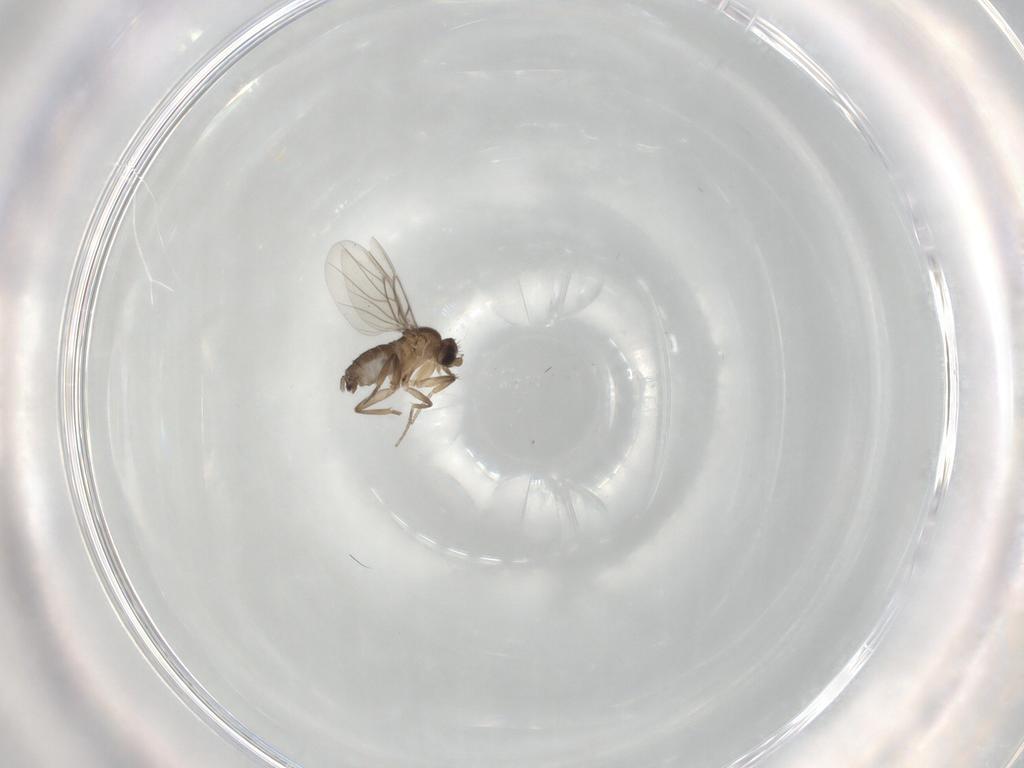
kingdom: Animalia
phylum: Arthropoda
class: Insecta
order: Diptera
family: Phoridae
